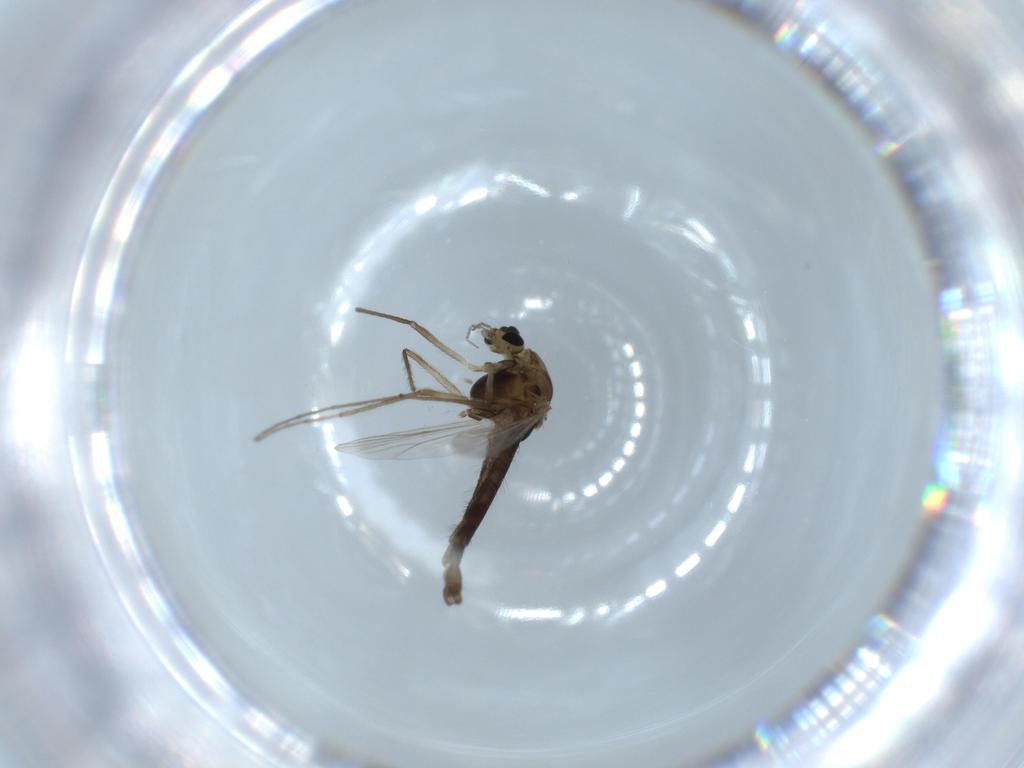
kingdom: Animalia
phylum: Arthropoda
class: Insecta
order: Diptera
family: Chironomidae
